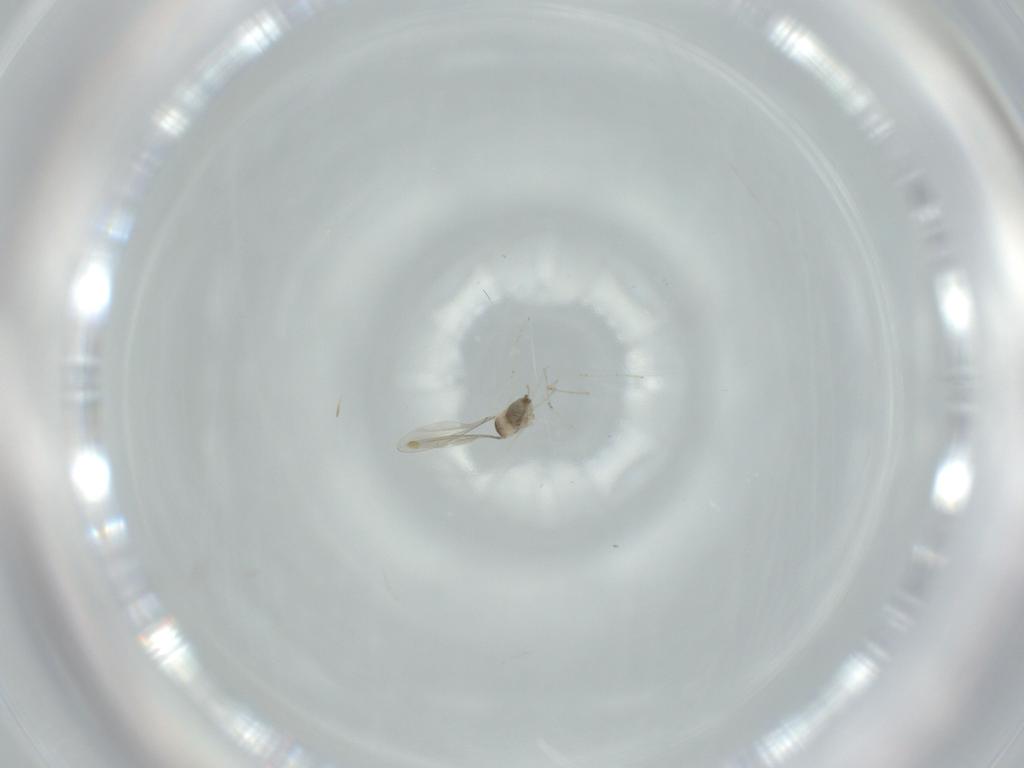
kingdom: Animalia
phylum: Arthropoda
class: Insecta
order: Diptera
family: Cecidomyiidae
